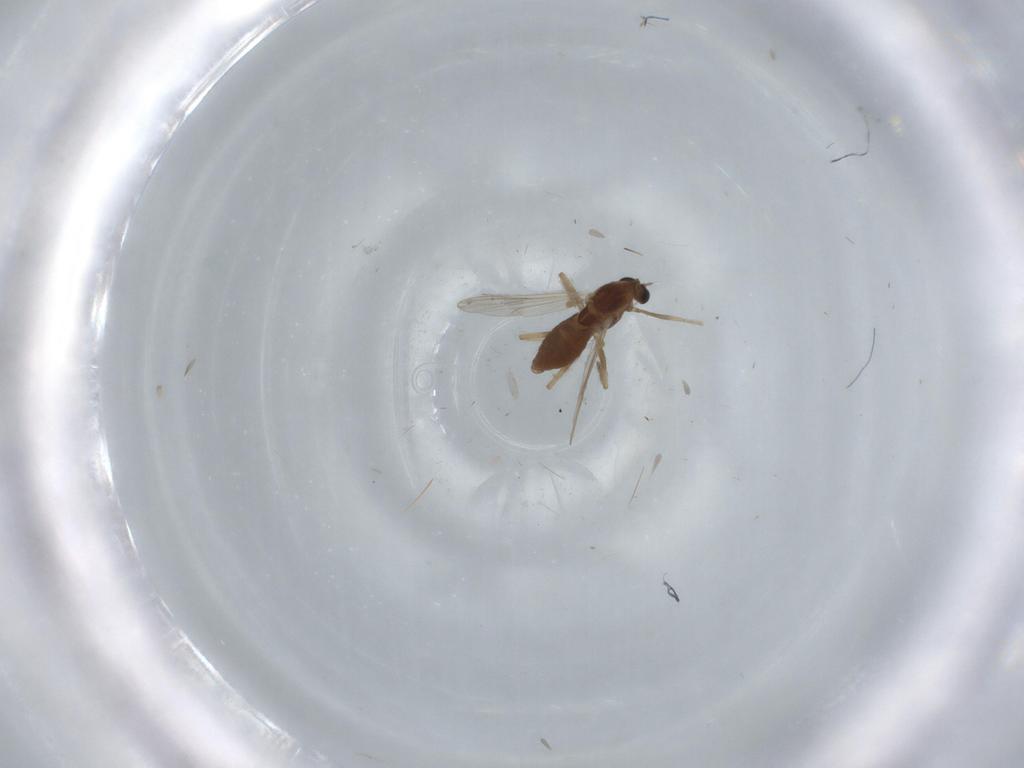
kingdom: Animalia
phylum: Arthropoda
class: Insecta
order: Diptera
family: Chironomidae
